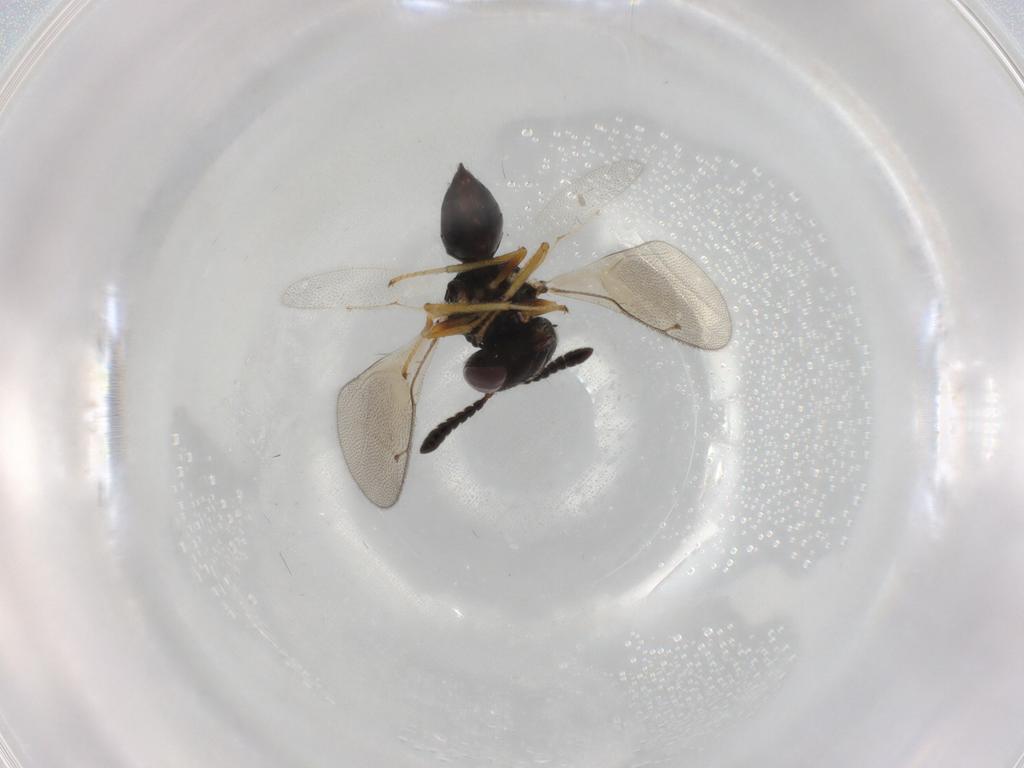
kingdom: Animalia
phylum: Arthropoda
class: Insecta
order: Hymenoptera
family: Pteromalidae
